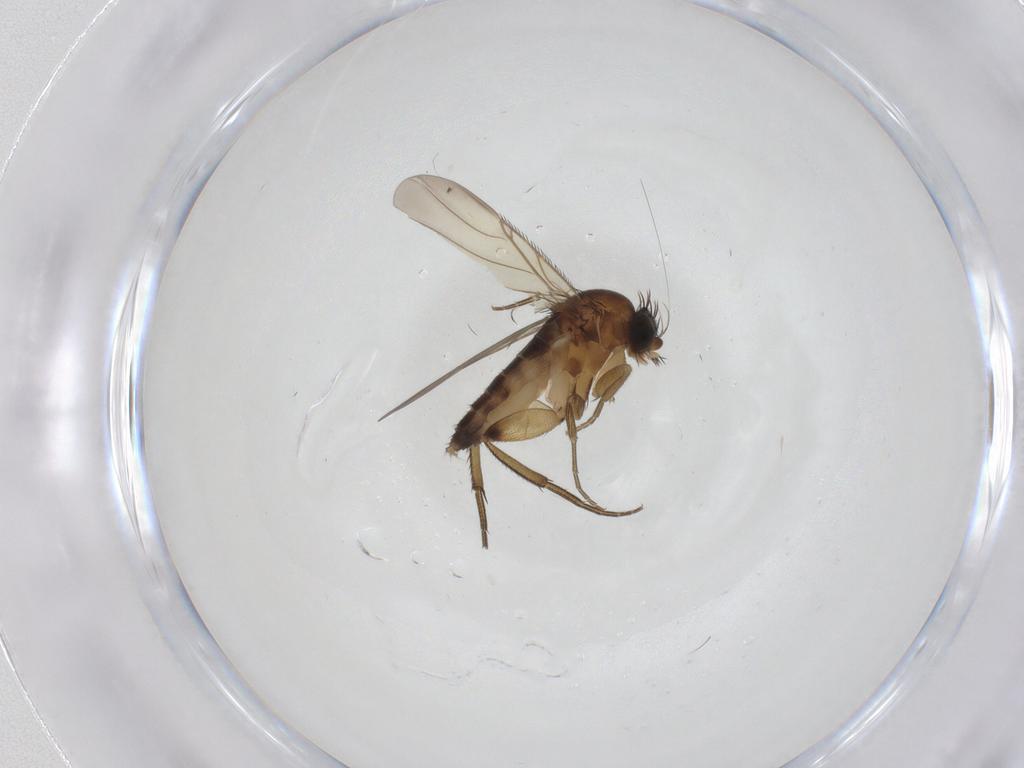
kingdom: Animalia
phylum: Arthropoda
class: Insecta
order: Diptera
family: Phoridae
